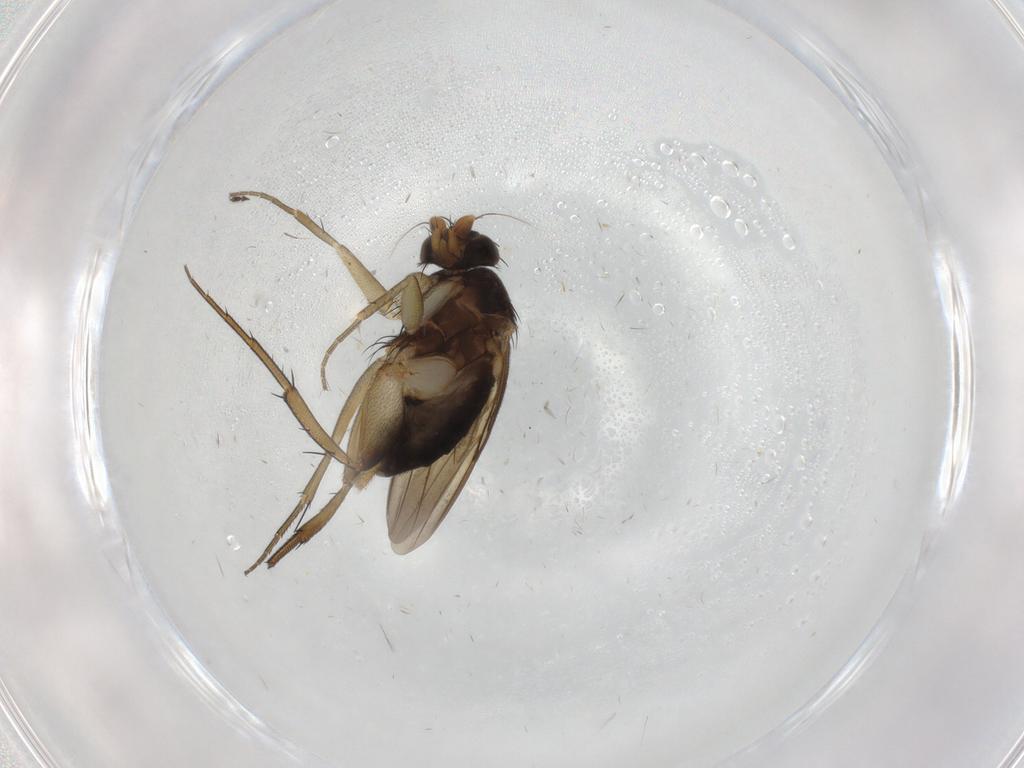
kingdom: Animalia
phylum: Arthropoda
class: Insecta
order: Diptera
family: Phoridae
